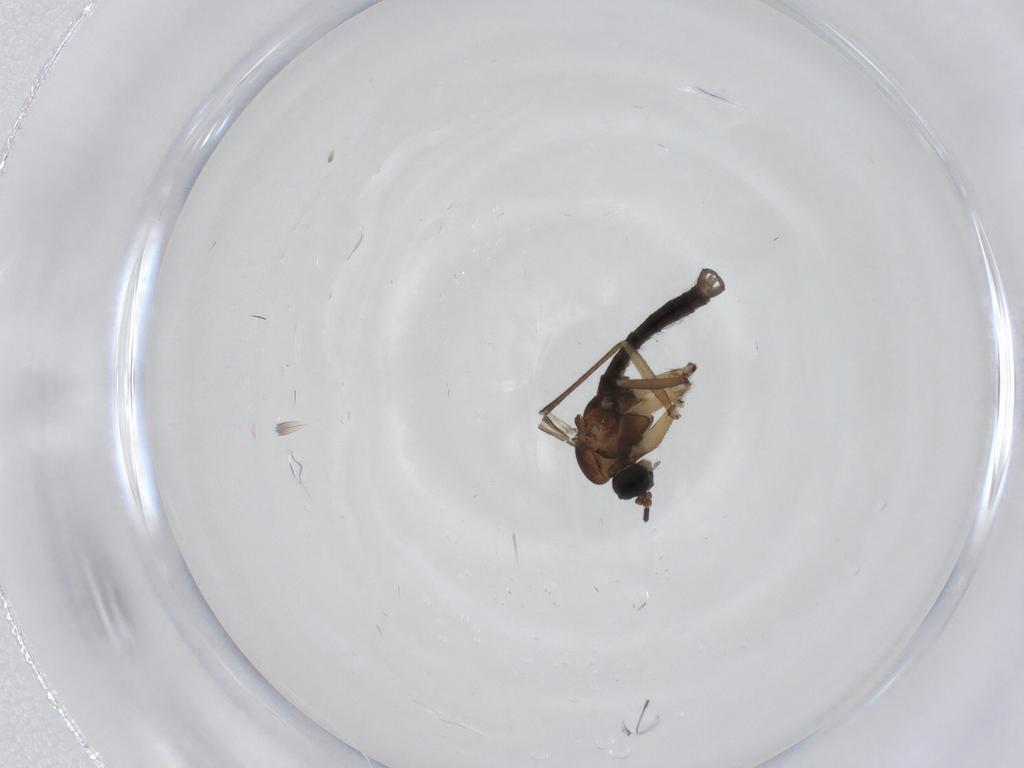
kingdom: Animalia
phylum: Arthropoda
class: Insecta
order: Diptera
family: Sciaridae
